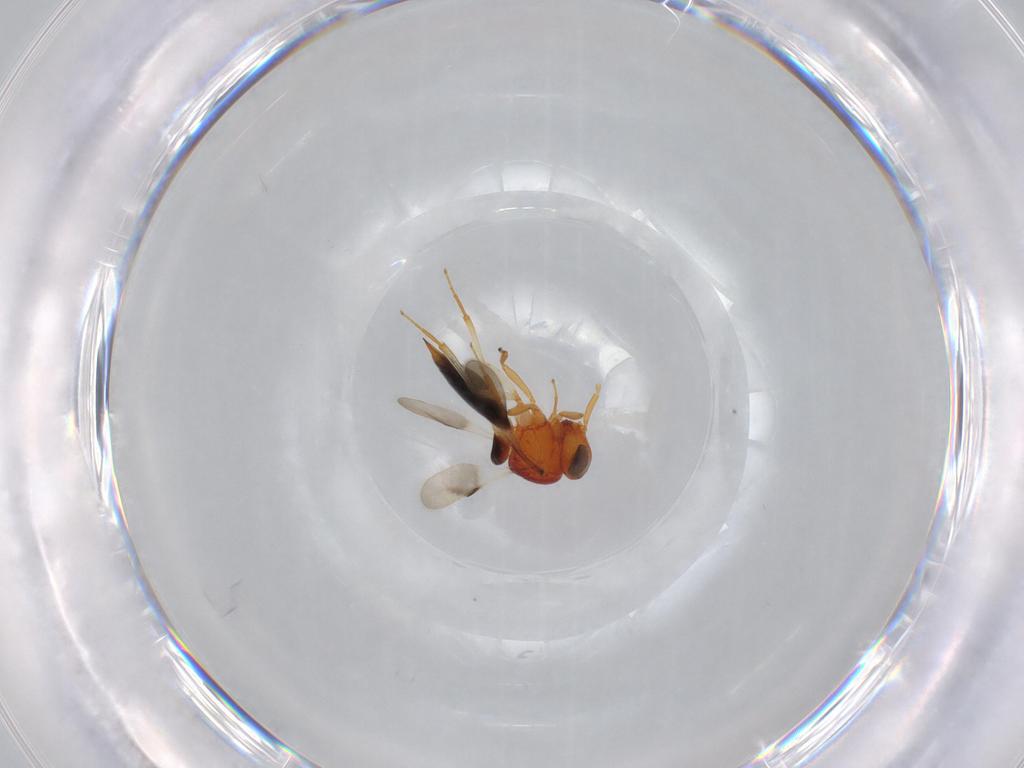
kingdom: Animalia
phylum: Arthropoda
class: Insecta
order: Hymenoptera
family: Scelionidae
